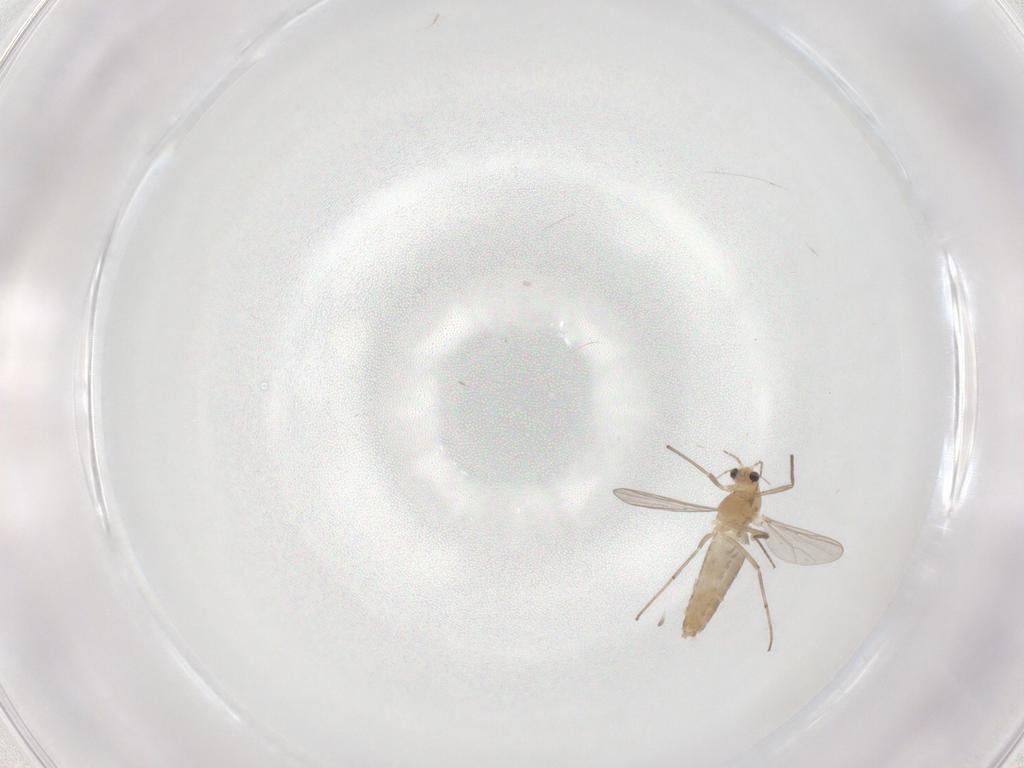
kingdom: Animalia
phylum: Arthropoda
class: Insecta
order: Diptera
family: Chironomidae
